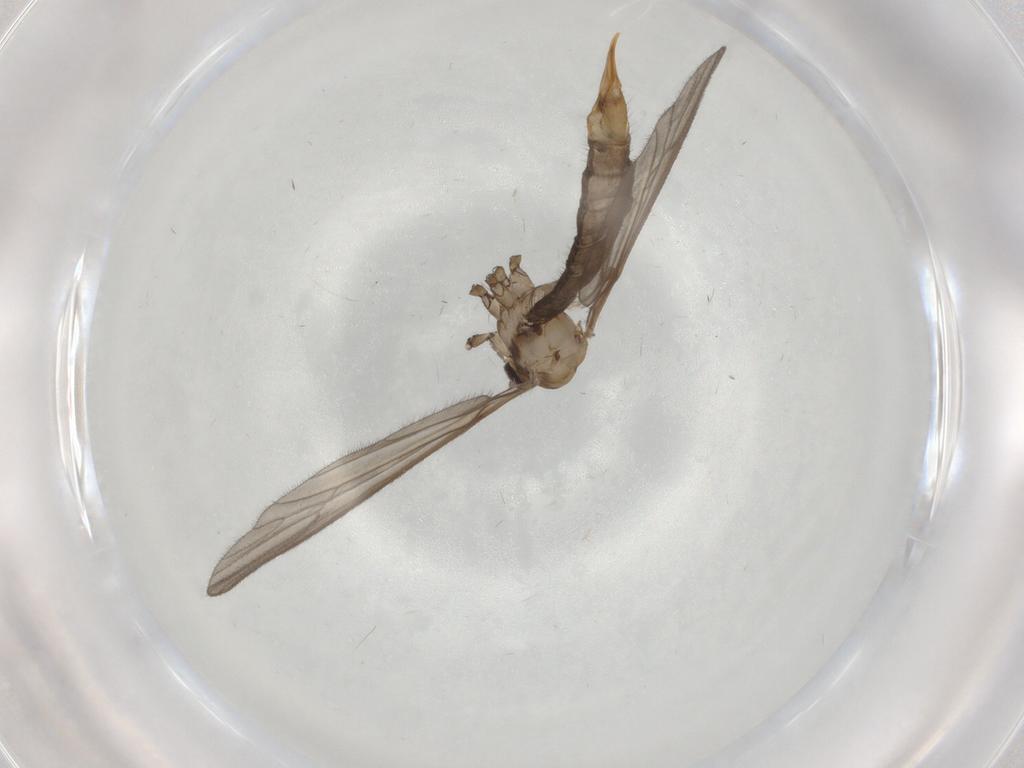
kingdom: Animalia
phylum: Arthropoda
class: Insecta
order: Diptera
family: Limoniidae
